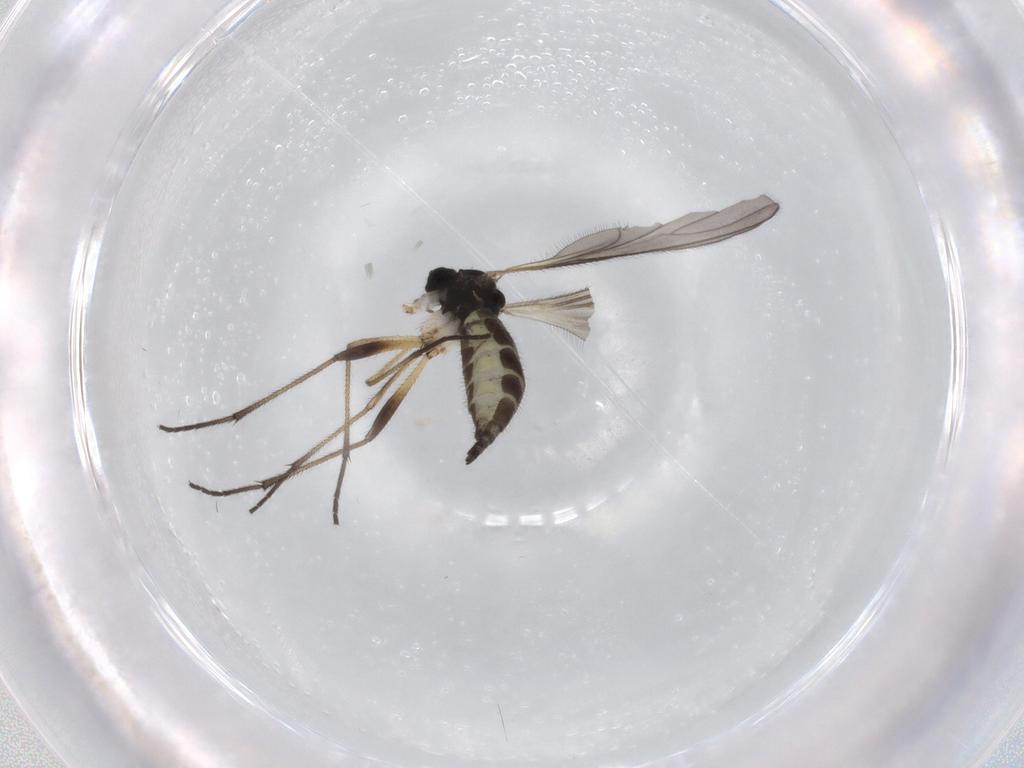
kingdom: Animalia
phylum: Arthropoda
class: Insecta
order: Diptera
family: Sciaridae
